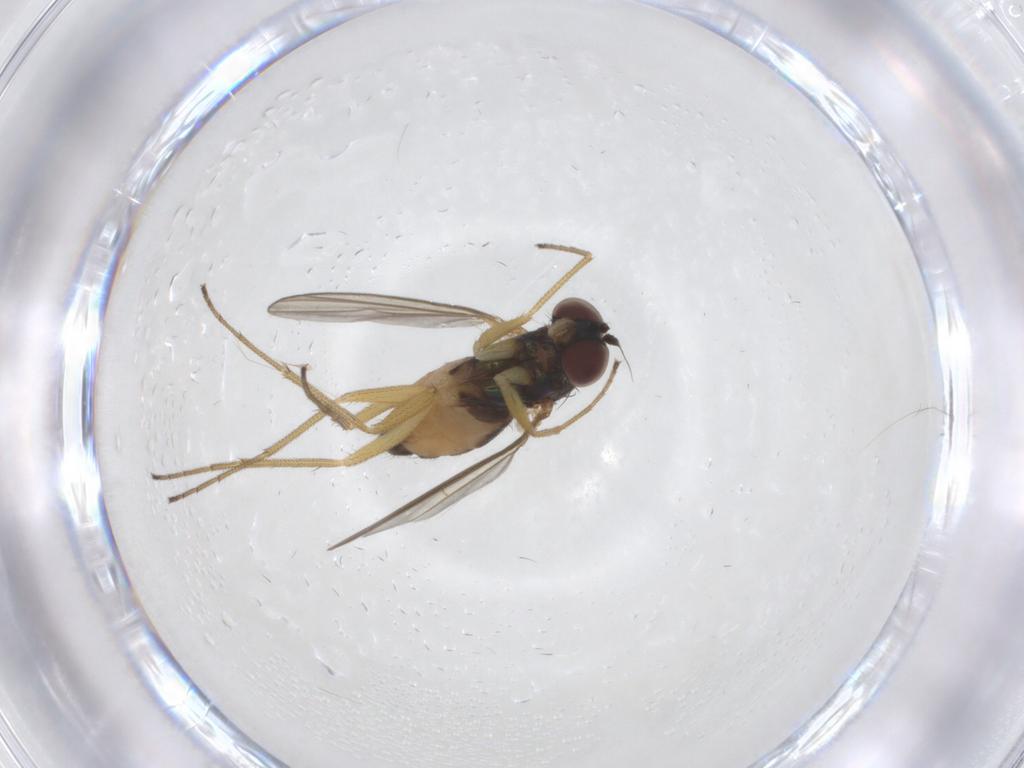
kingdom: Animalia
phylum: Arthropoda
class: Insecta
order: Diptera
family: Dolichopodidae
